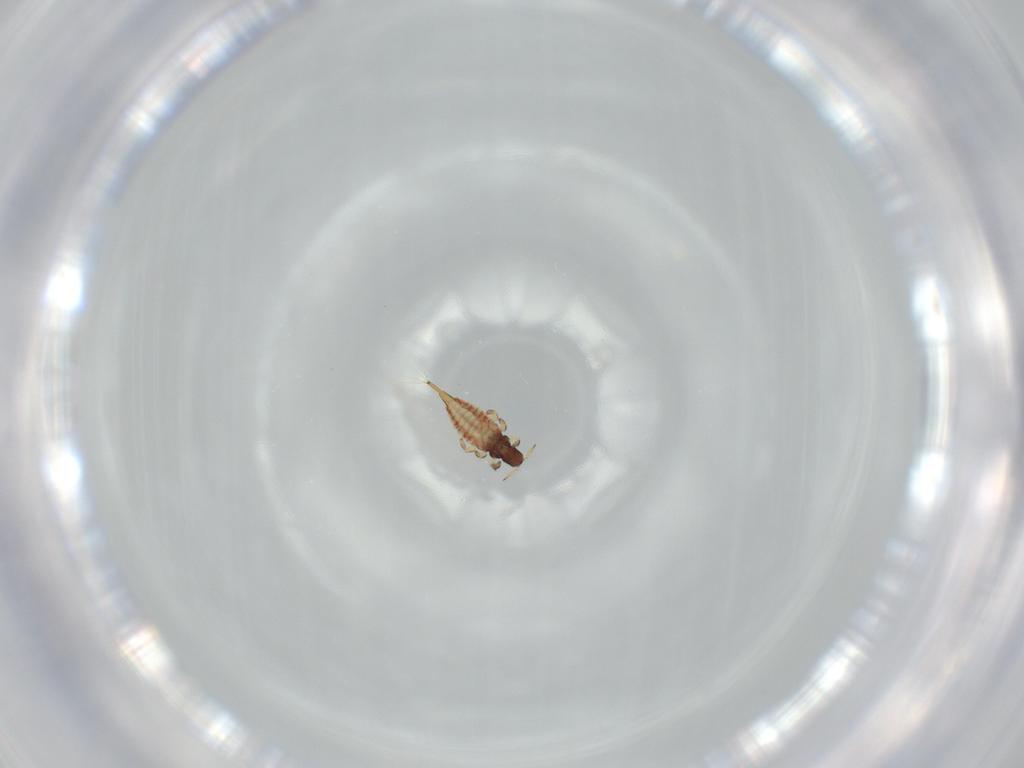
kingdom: Animalia
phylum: Arthropoda
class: Insecta
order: Thysanoptera
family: Phlaeothripidae
